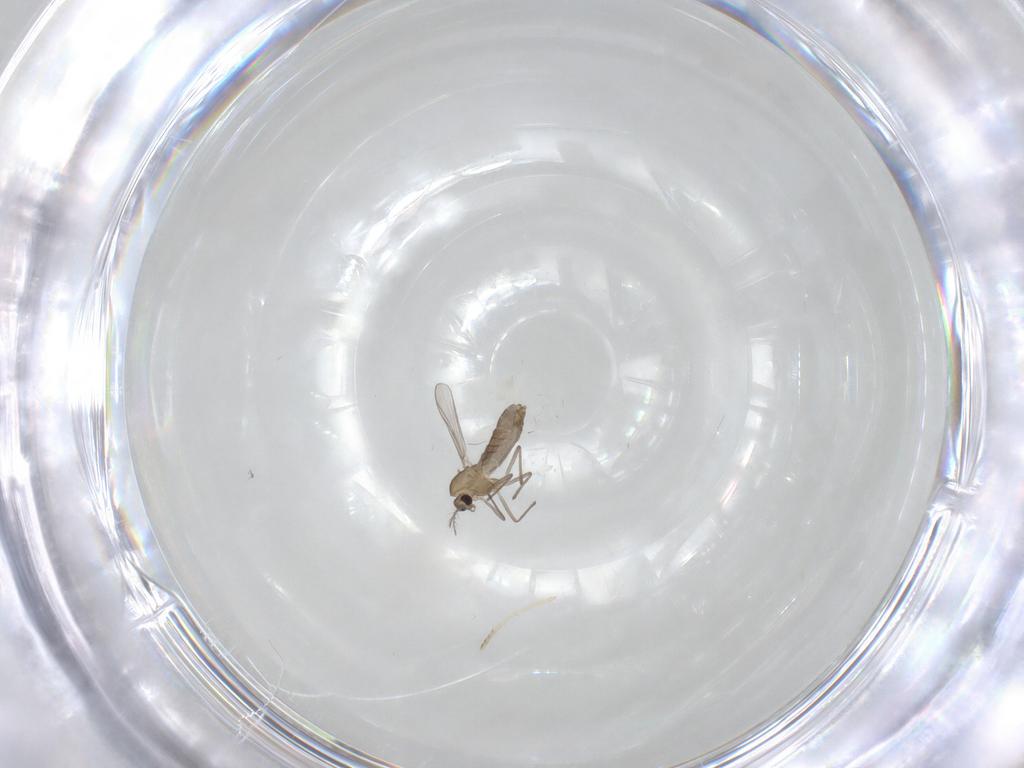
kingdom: Animalia
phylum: Arthropoda
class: Insecta
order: Diptera
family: Chironomidae
